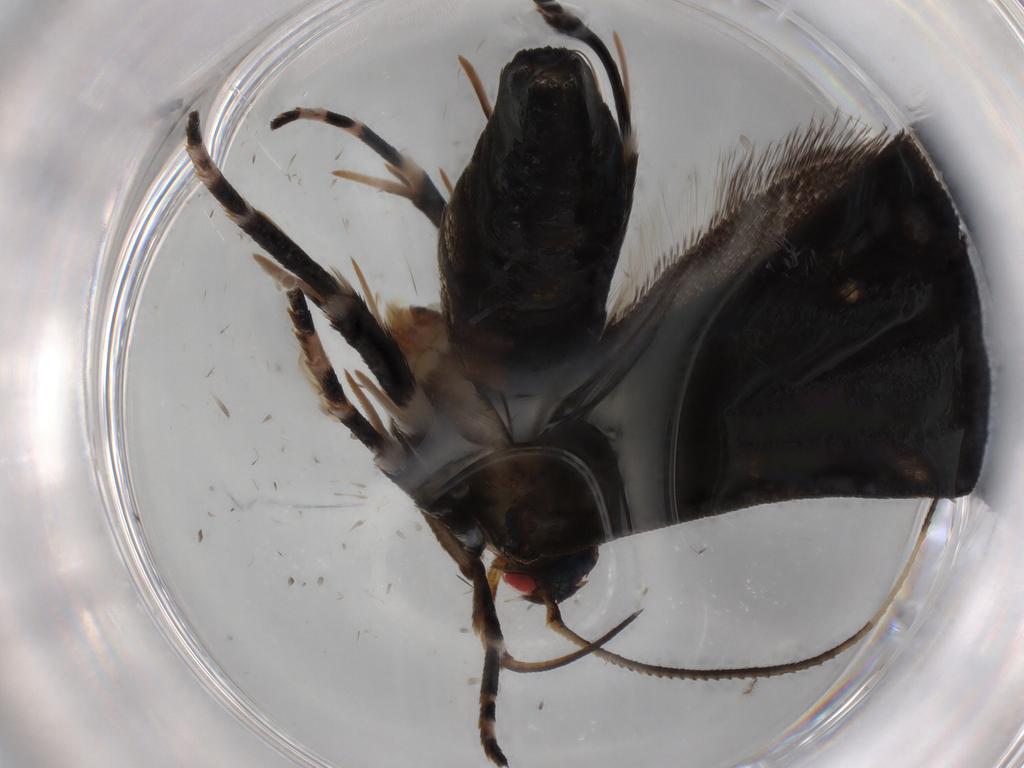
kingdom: Animalia
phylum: Arthropoda
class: Insecta
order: Lepidoptera
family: Gelechiidae
